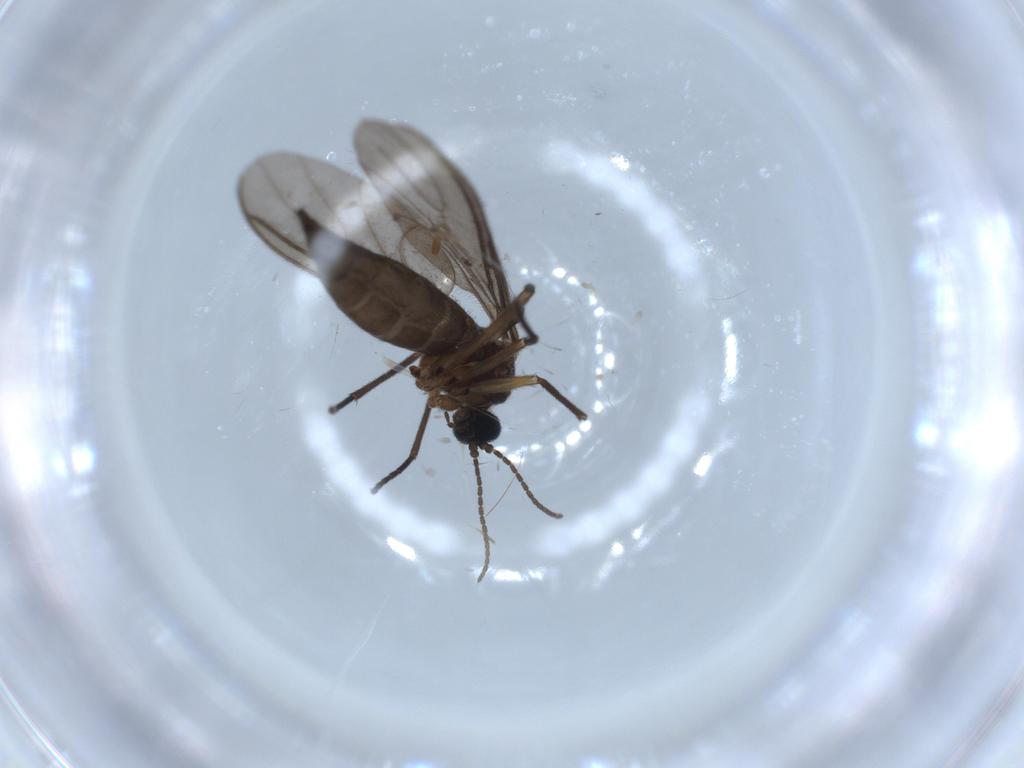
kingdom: Animalia
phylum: Arthropoda
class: Insecta
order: Diptera
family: Sciaridae
